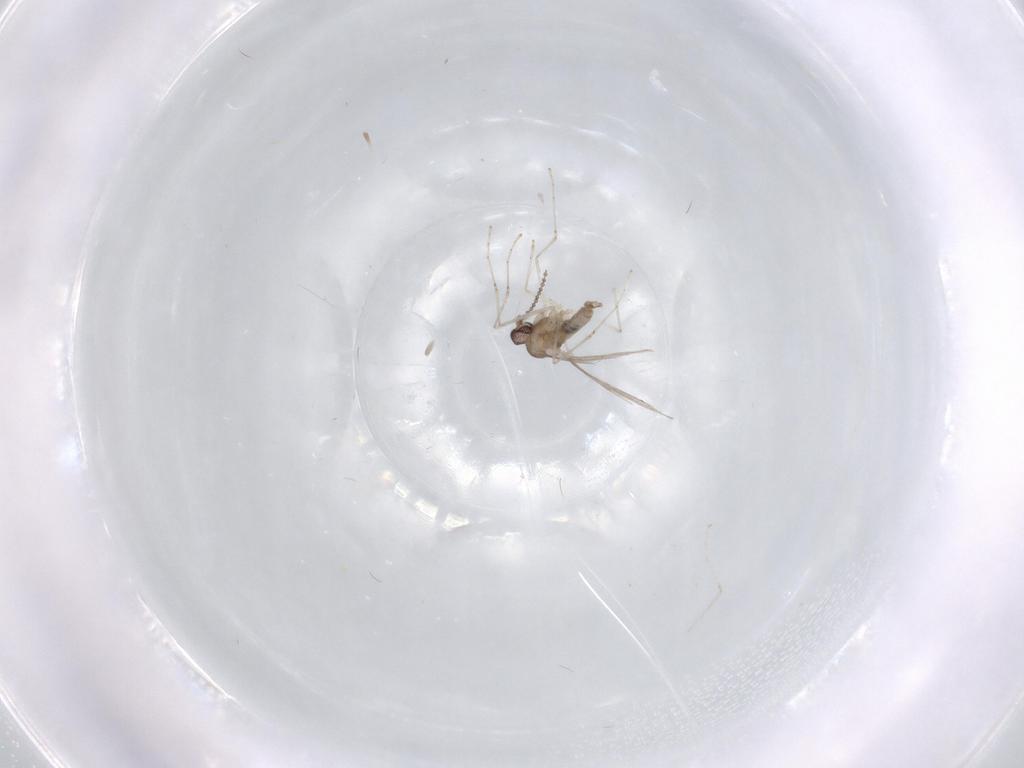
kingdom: Animalia
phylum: Arthropoda
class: Insecta
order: Diptera
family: Cecidomyiidae
